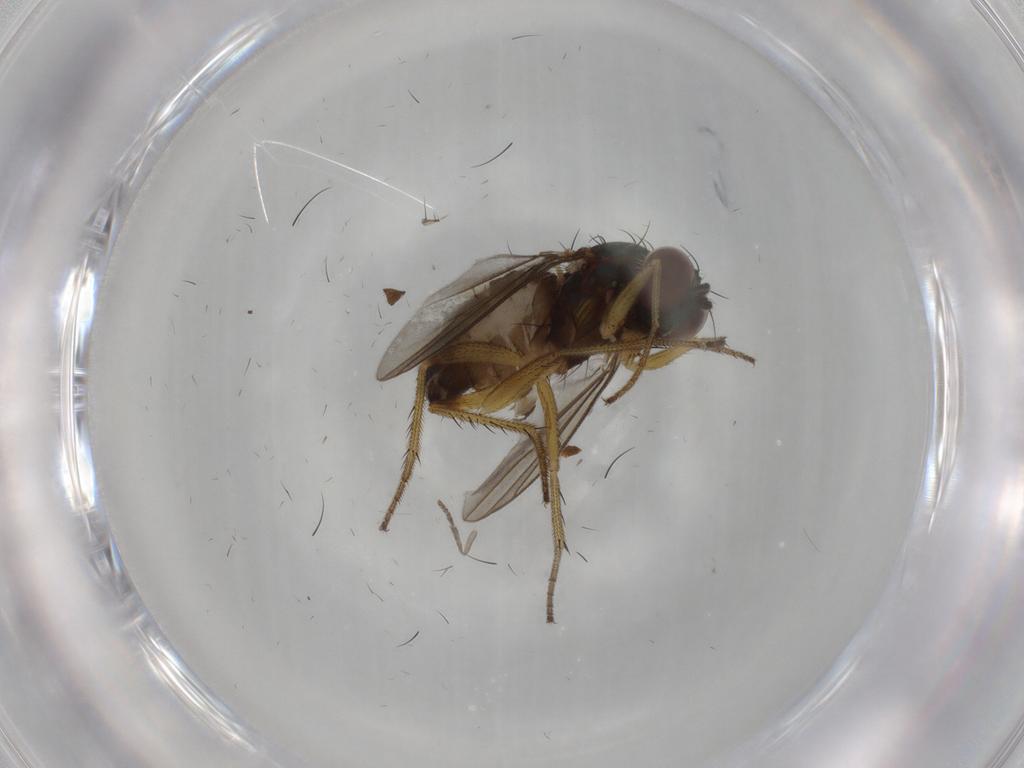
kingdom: Animalia
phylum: Arthropoda
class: Insecta
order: Diptera
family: Dolichopodidae
